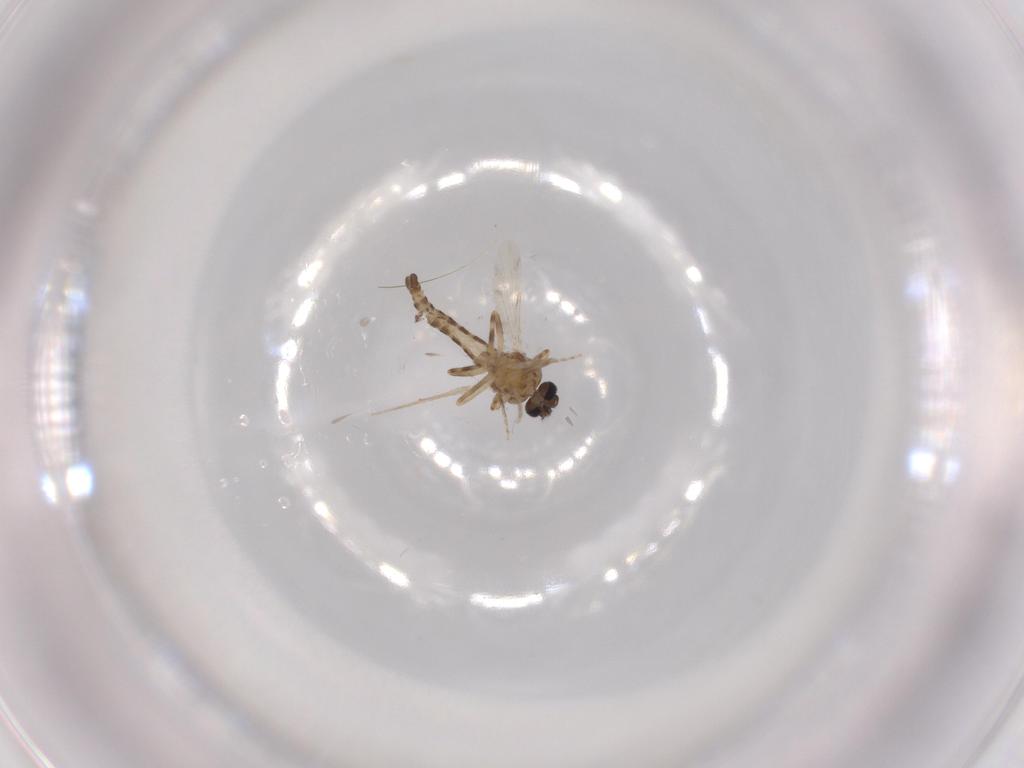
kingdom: Animalia
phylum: Arthropoda
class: Insecta
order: Diptera
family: Ceratopogonidae
